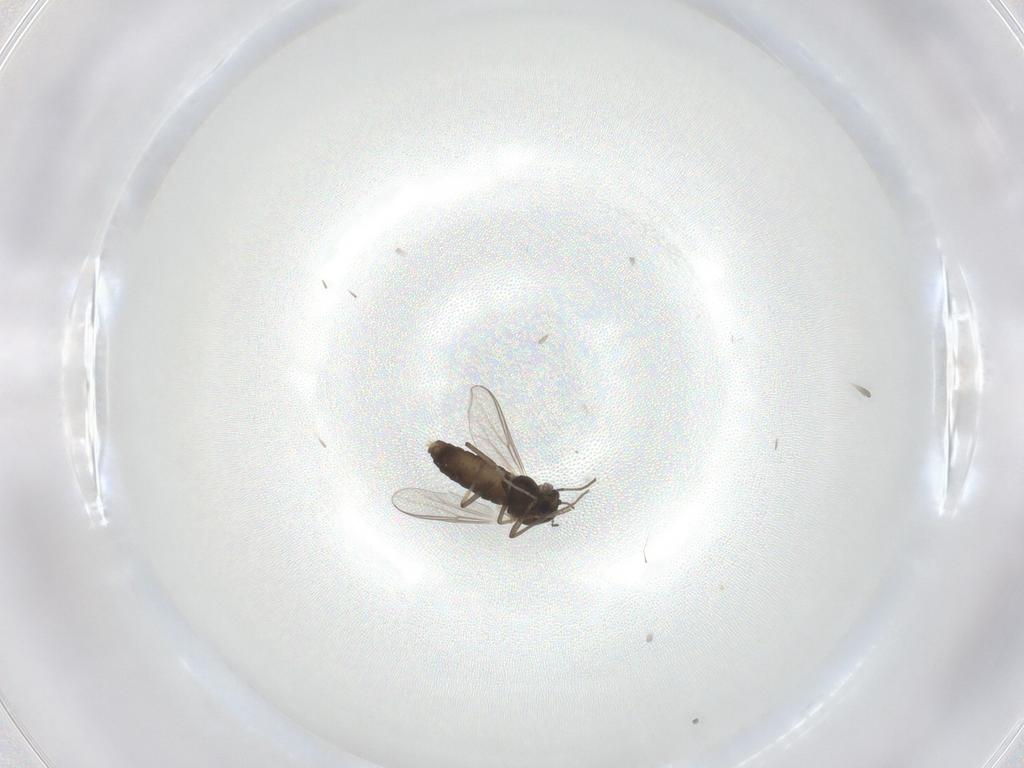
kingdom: Animalia
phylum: Arthropoda
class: Insecta
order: Diptera
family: Chironomidae
